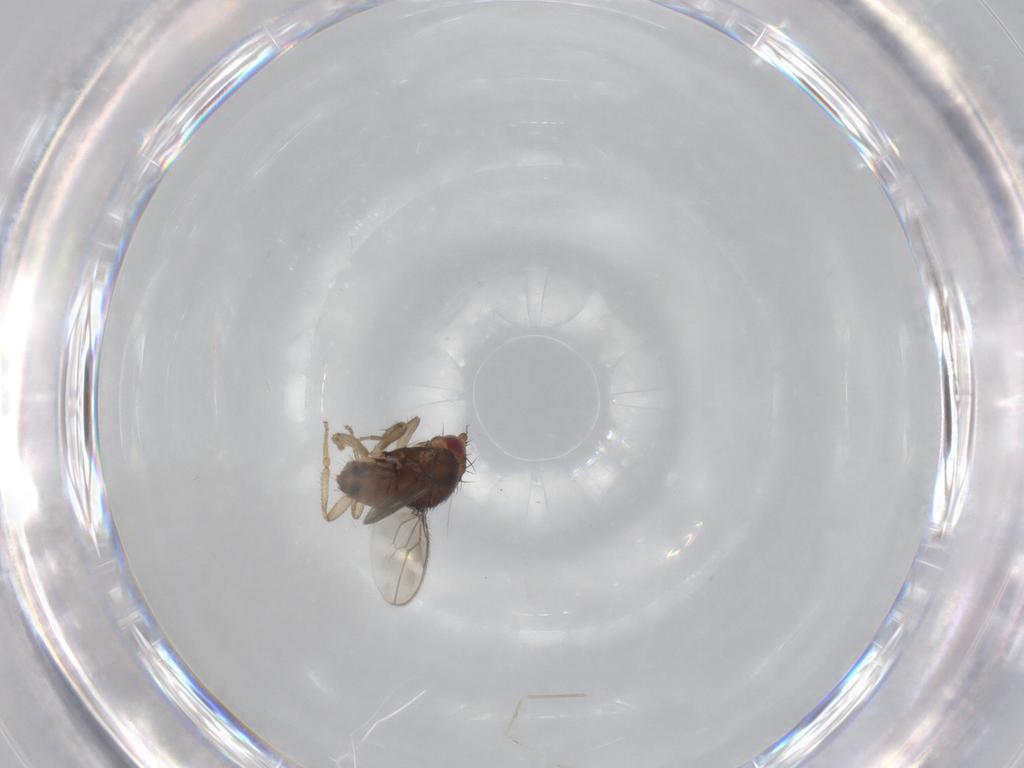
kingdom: Animalia
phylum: Arthropoda
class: Insecta
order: Diptera
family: Sphaeroceridae
